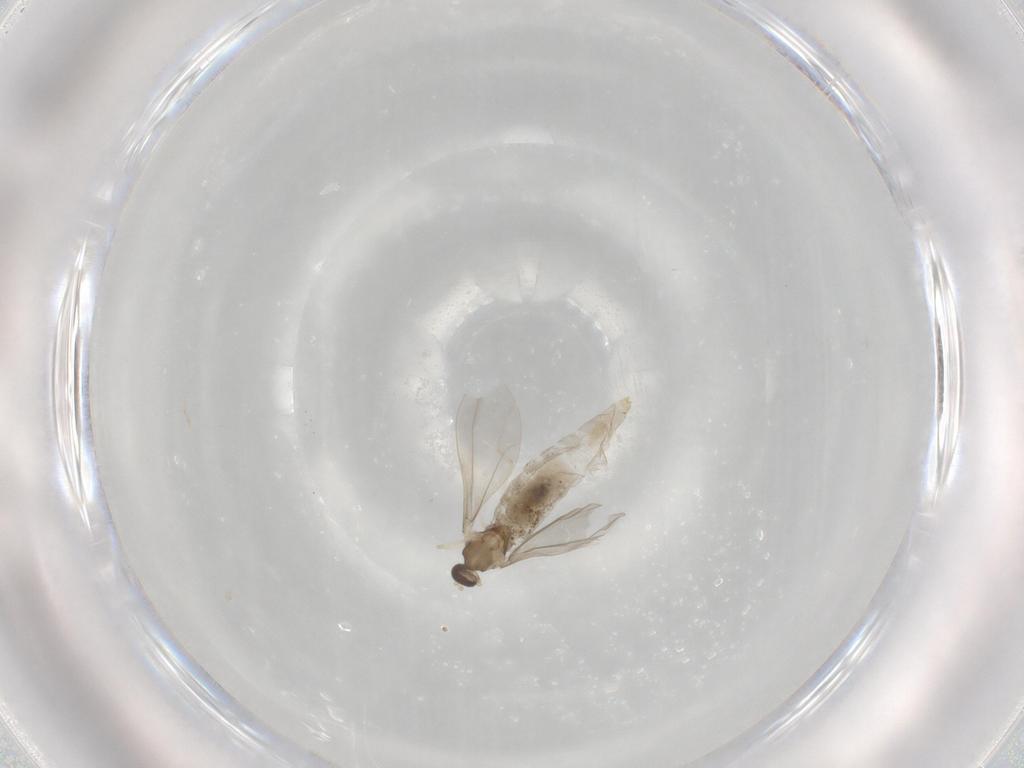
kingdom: Animalia
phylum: Arthropoda
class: Insecta
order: Diptera
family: Cecidomyiidae
